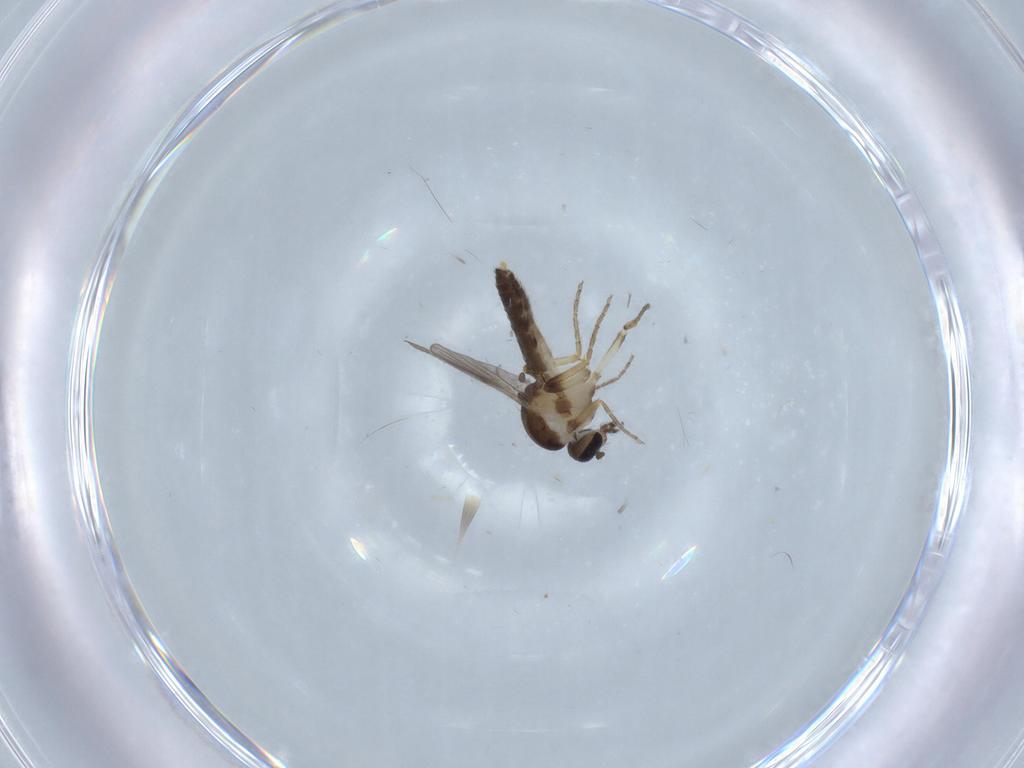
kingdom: Animalia
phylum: Arthropoda
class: Insecta
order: Diptera
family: Ceratopogonidae
